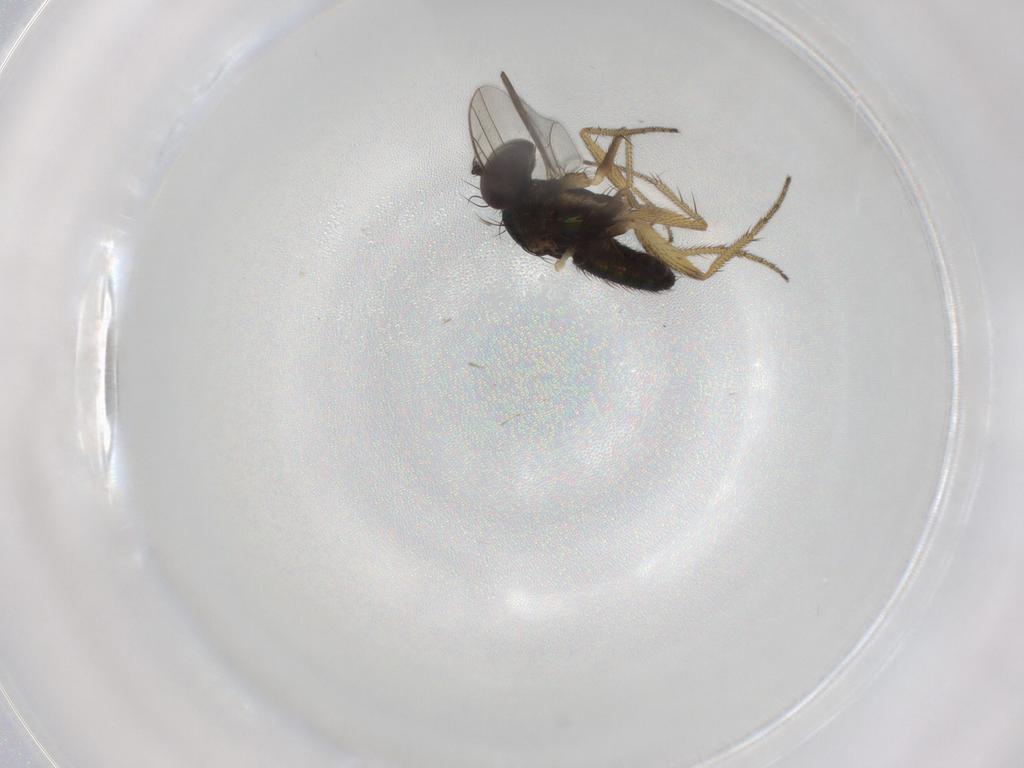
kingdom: Animalia
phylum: Arthropoda
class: Insecta
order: Diptera
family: Dolichopodidae
